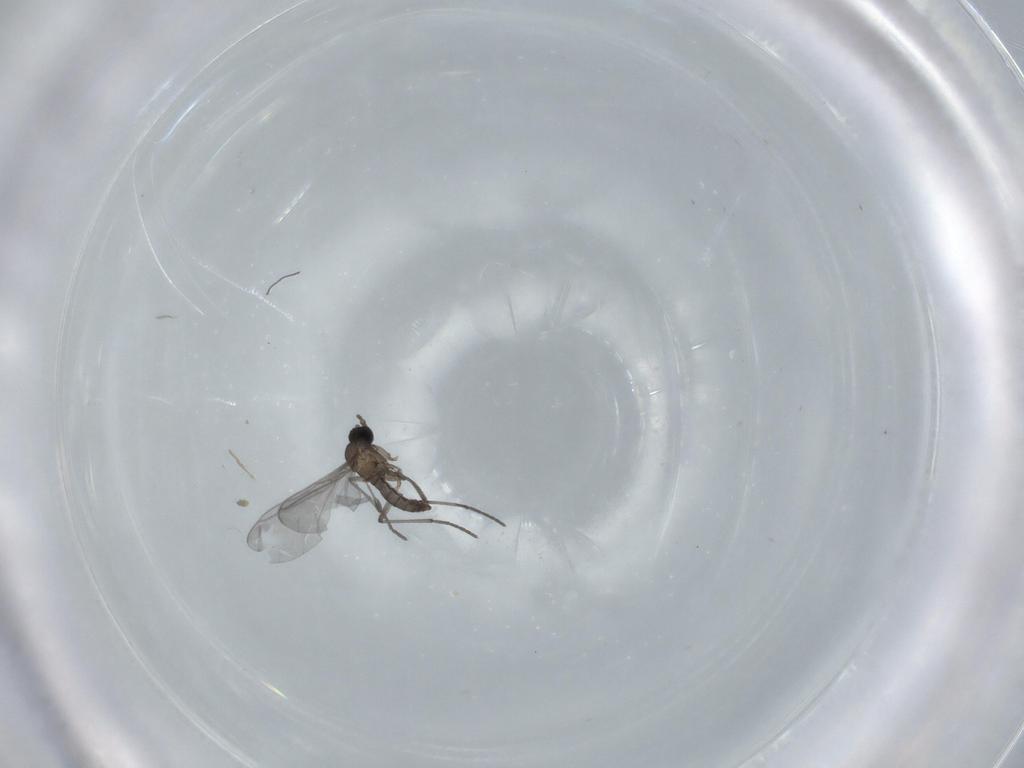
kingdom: Animalia
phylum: Arthropoda
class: Insecta
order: Diptera
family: Sciaridae
